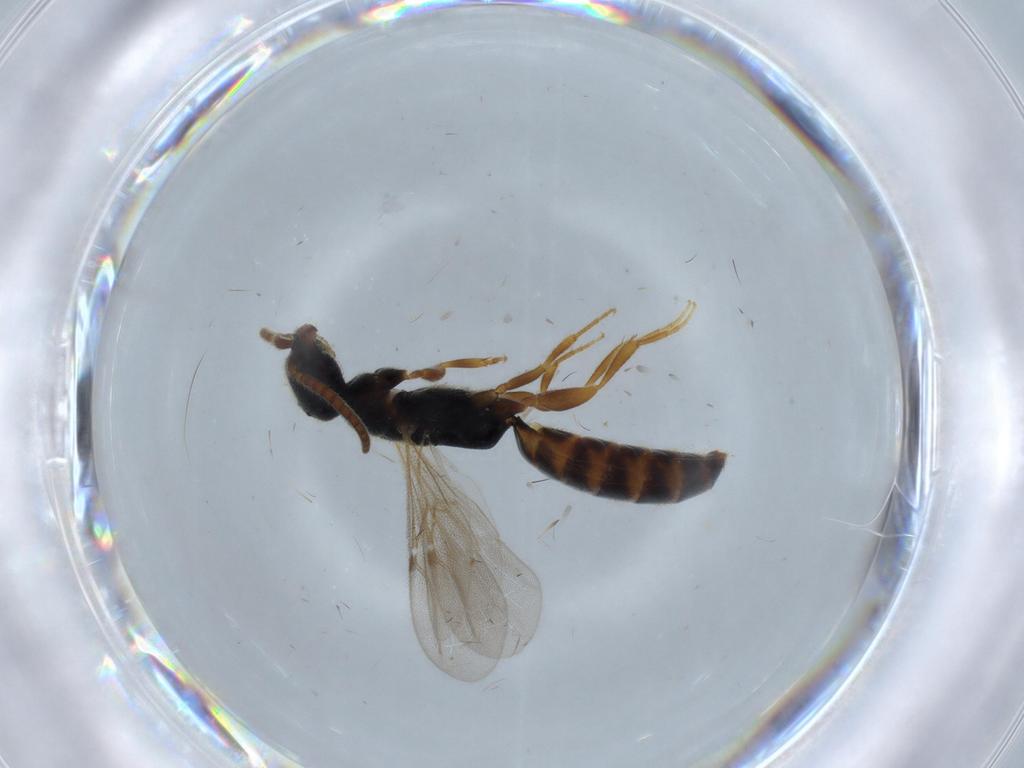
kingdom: Animalia
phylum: Arthropoda
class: Insecta
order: Hymenoptera
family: Bethylidae
